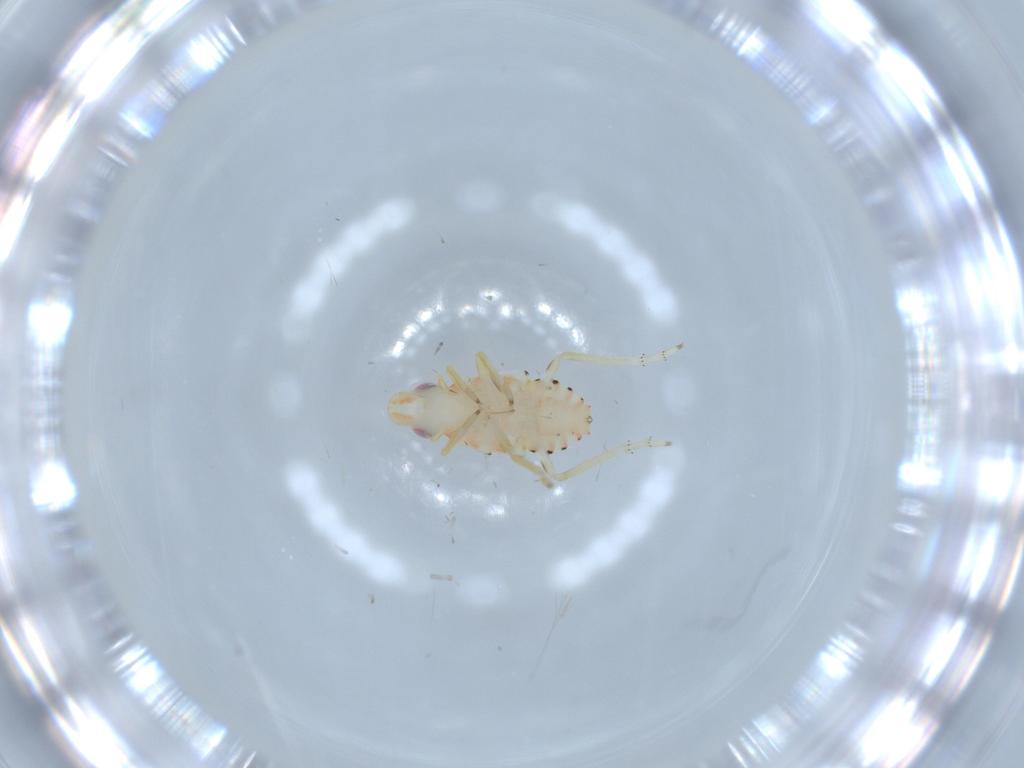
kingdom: Animalia
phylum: Arthropoda
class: Insecta
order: Hemiptera
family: Tropiduchidae
